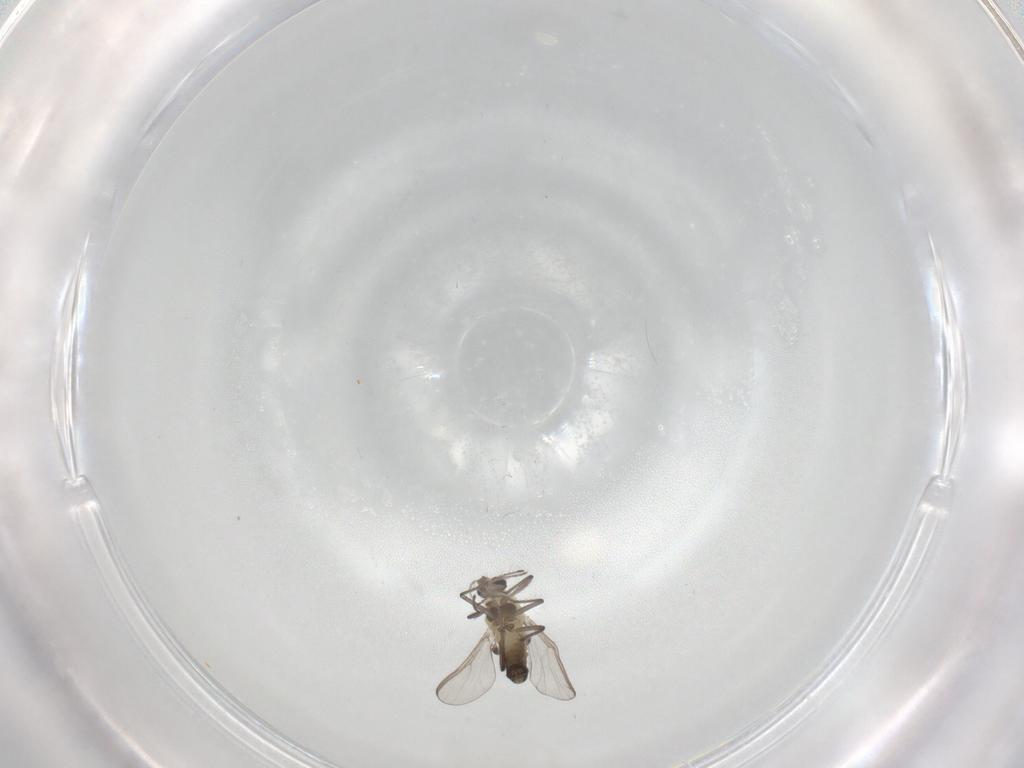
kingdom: Animalia
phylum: Arthropoda
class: Insecta
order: Diptera
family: Chironomidae
